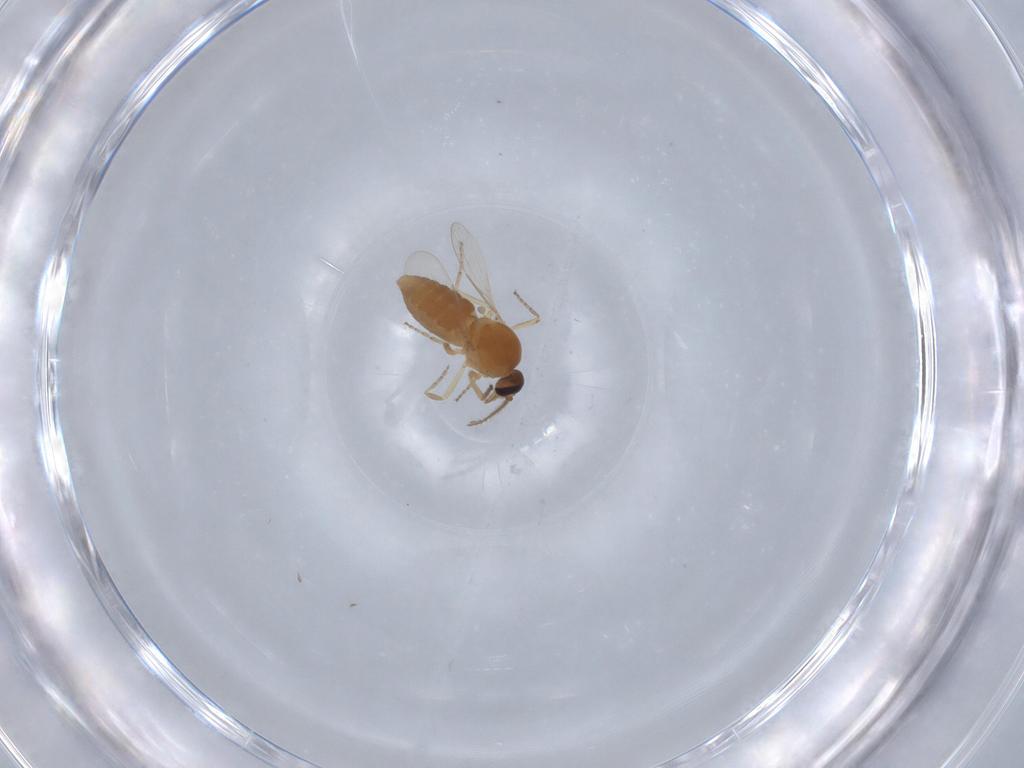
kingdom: Animalia
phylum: Arthropoda
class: Insecta
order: Diptera
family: Ceratopogonidae
